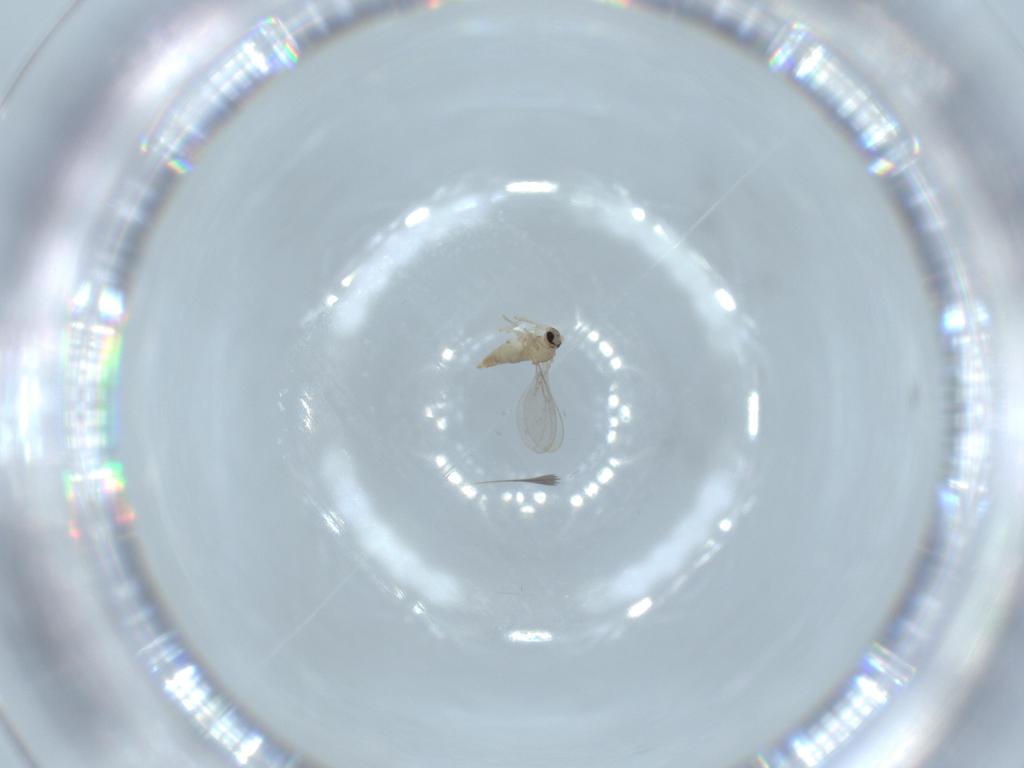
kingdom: Animalia
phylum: Arthropoda
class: Insecta
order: Diptera
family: Cecidomyiidae
